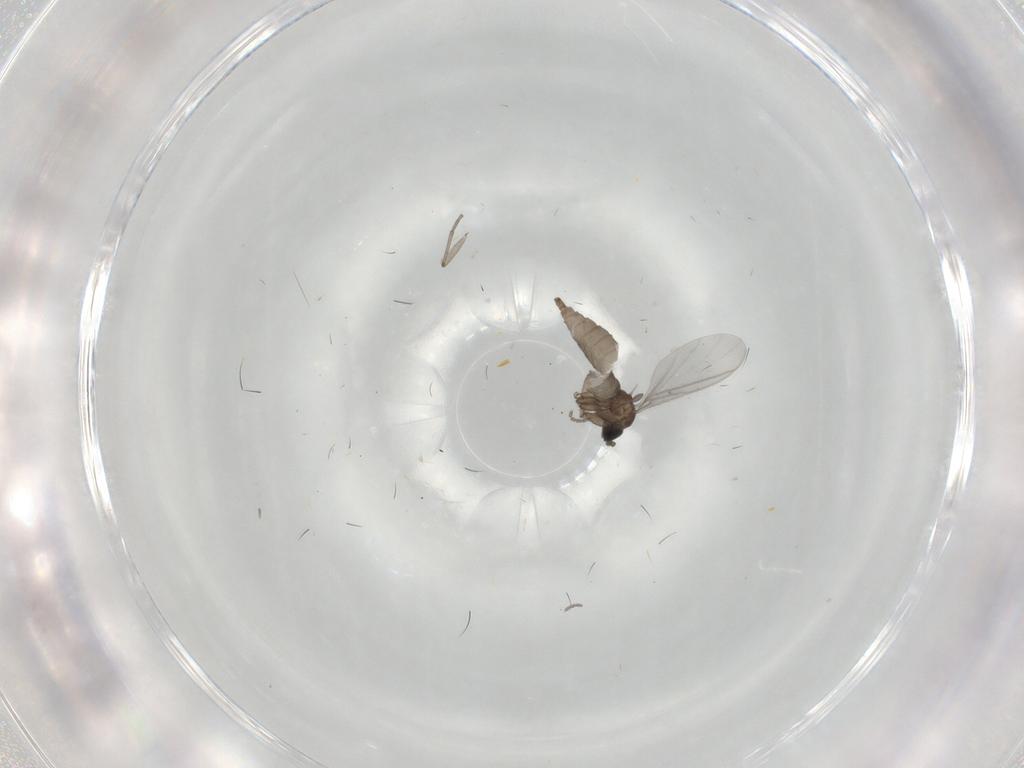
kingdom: Animalia
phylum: Arthropoda
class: Insecta
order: Diptera
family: Sciaridae
